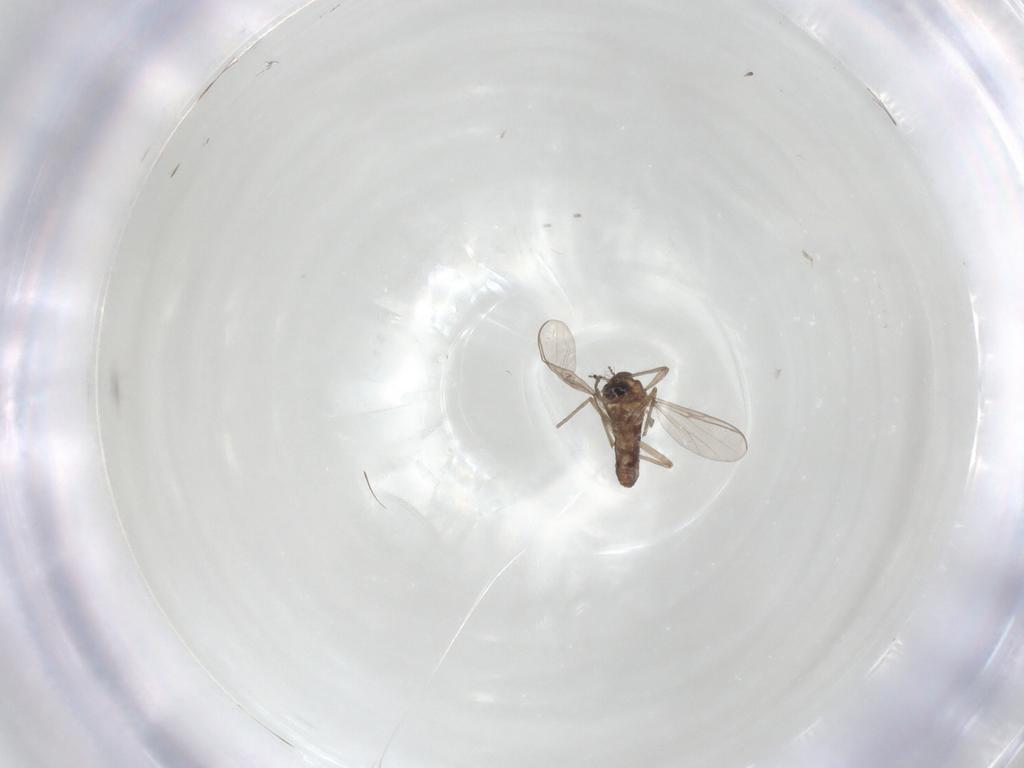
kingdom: Animalia
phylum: Arthropoda
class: Insecta
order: Diptera
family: Chironomidae
